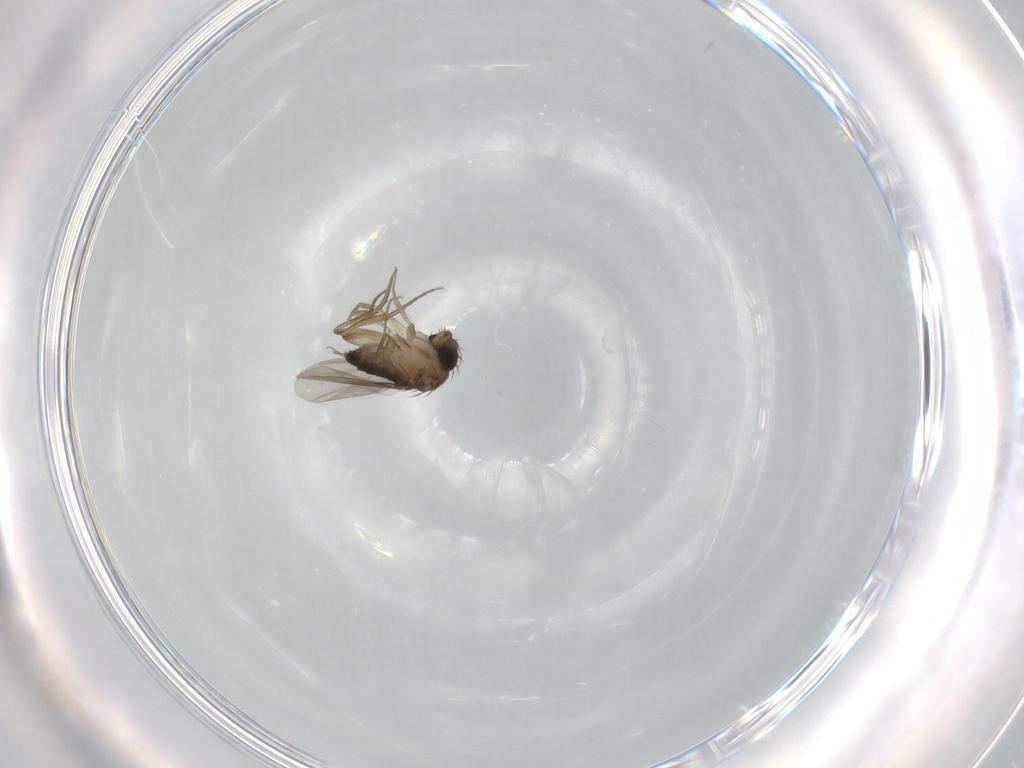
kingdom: Animalia
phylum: Arthropoda
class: Insecta
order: Diptera
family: Phoridae
